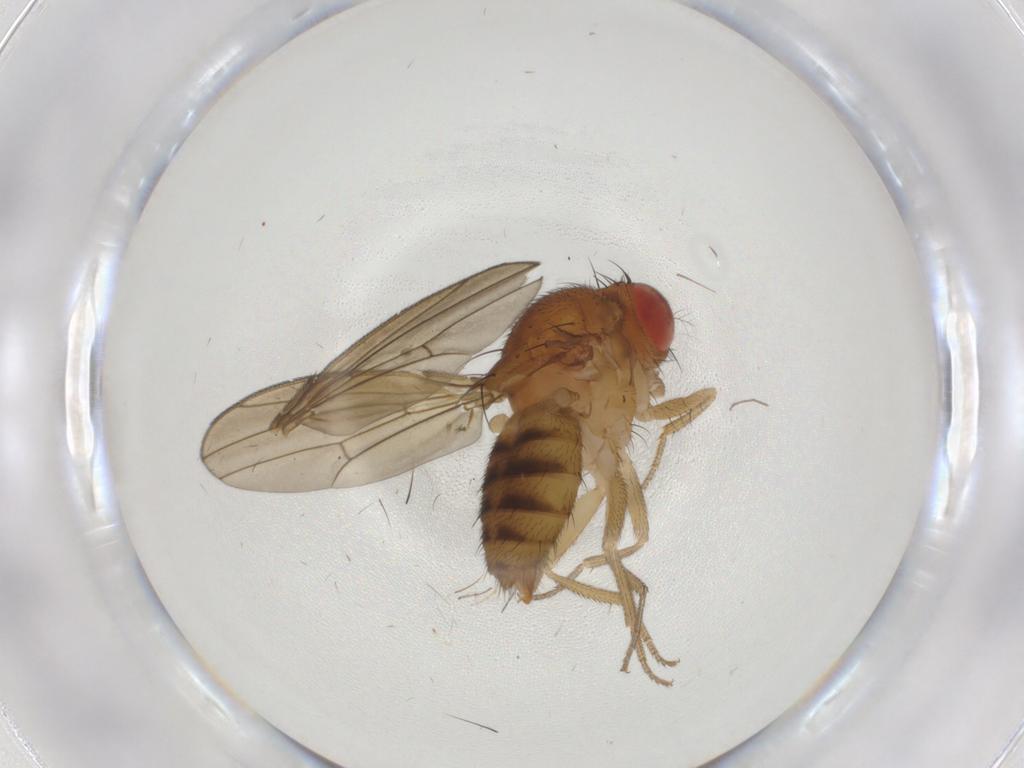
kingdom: Animalia
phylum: Arthropoda
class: Insecta
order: Diptera
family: Drosophilidae
